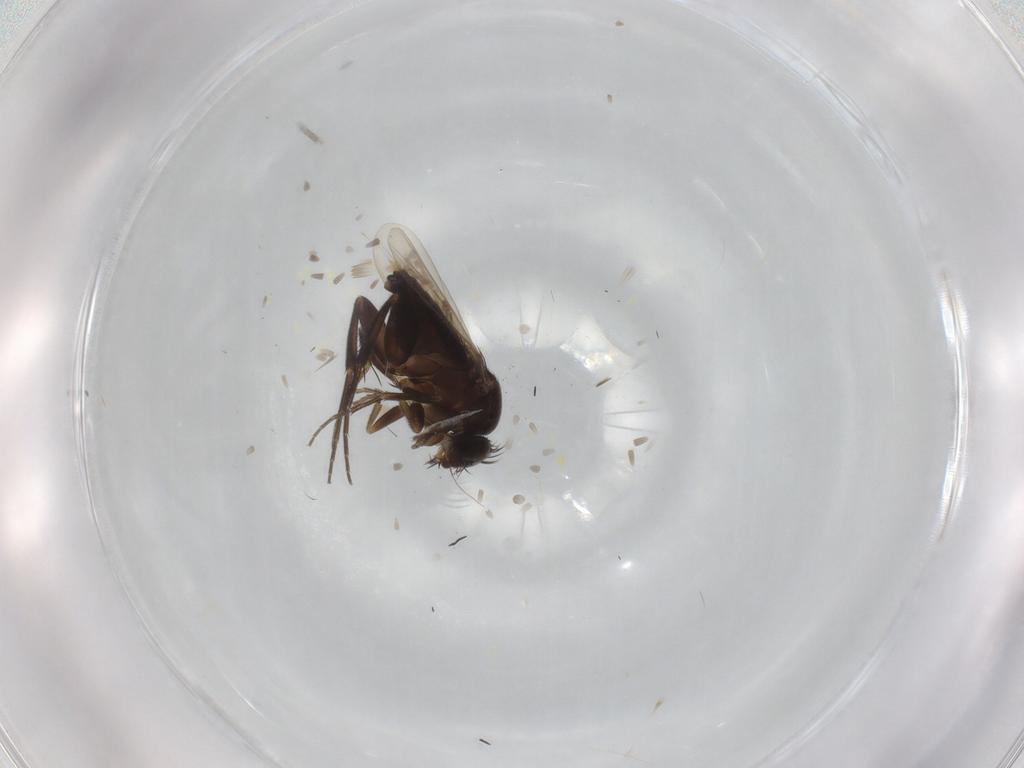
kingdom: Animalia
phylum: Arthropoda
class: Insecta
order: Diptera
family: Phoridae
